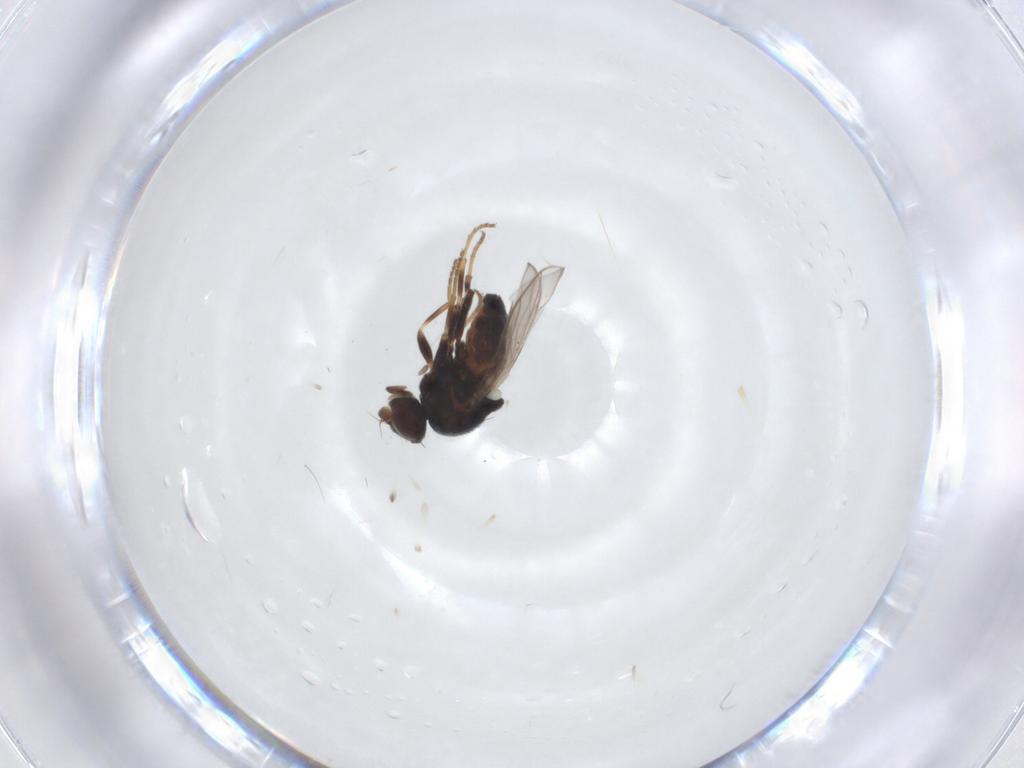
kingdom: Animalia
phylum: Arthropoda
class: Insecta
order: Diptera
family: Chloropidae
